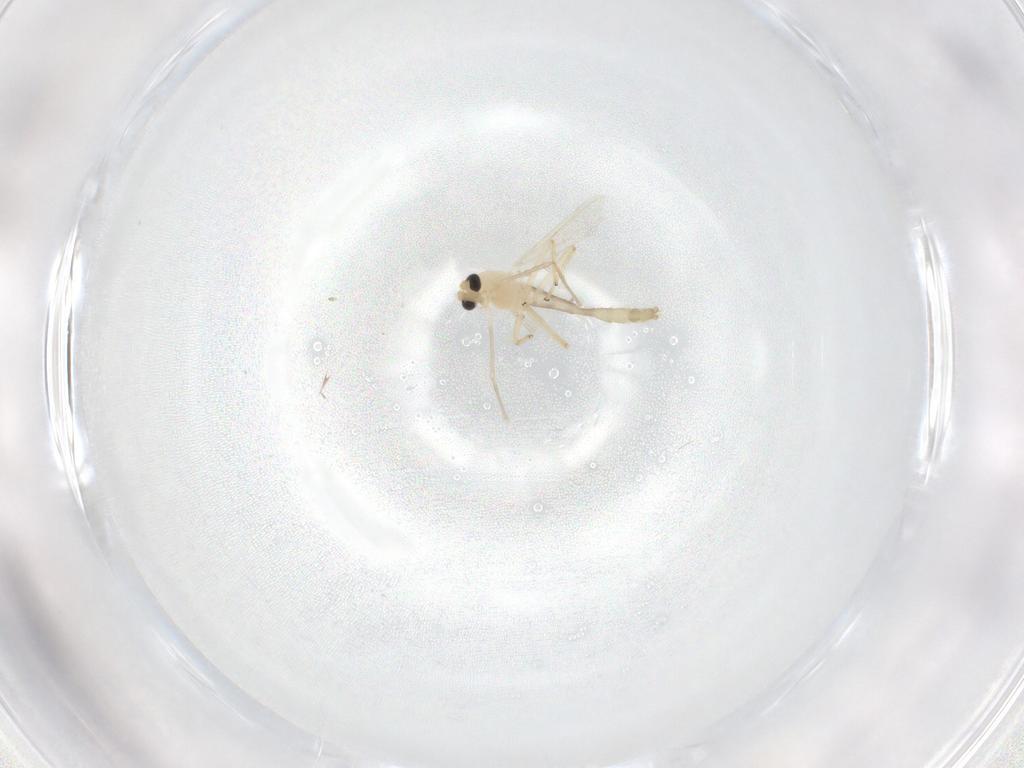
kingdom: Animalia
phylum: Arthropoda
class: Insecta
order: Diptera
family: Chironomidae
